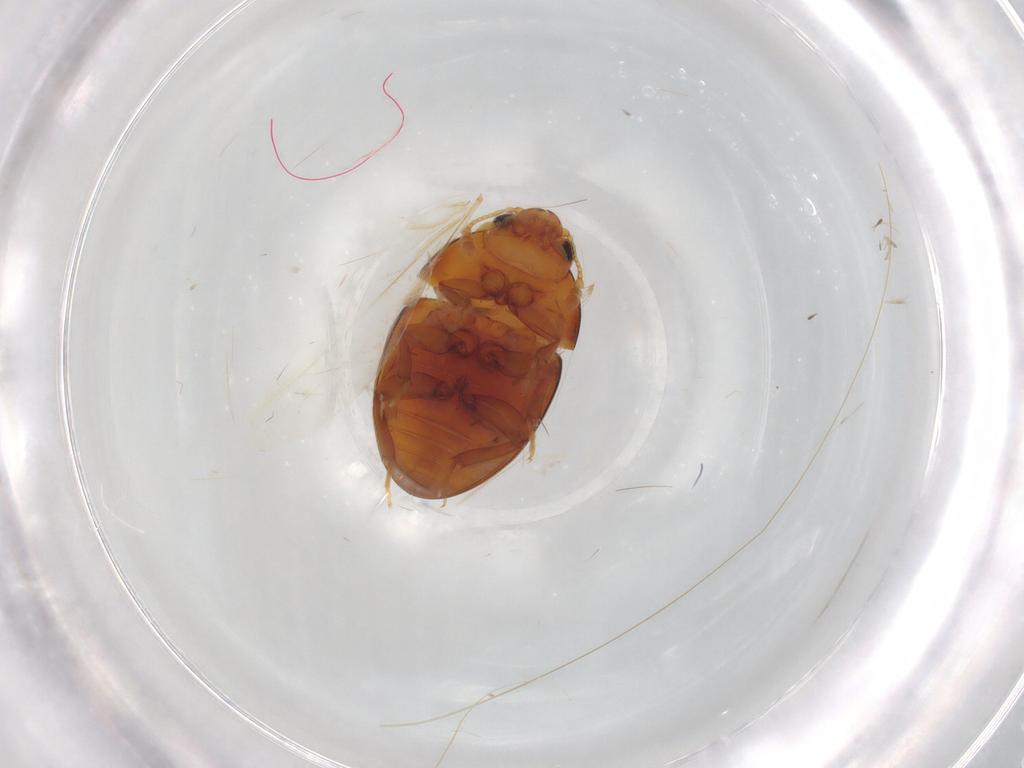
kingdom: Animalia
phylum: Arthropoda
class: Insecta
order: Coleoptera
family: Phalacridae
